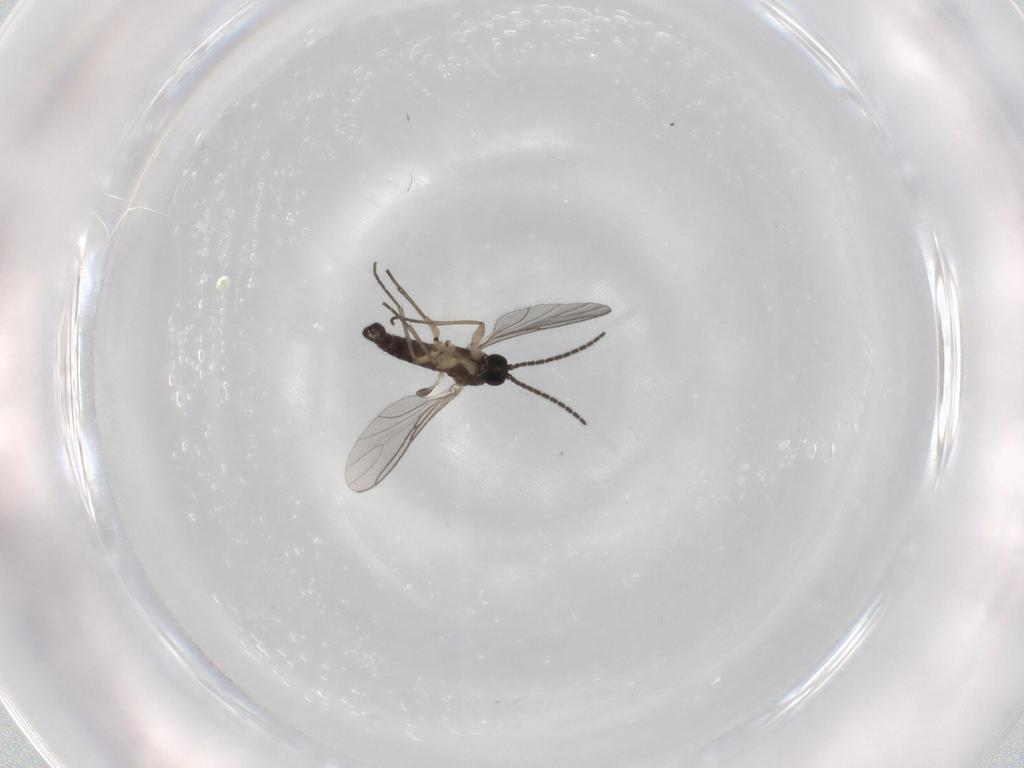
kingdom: Animalia
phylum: Arthropoda
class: Insecta
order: Diptera
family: Sciaridae
